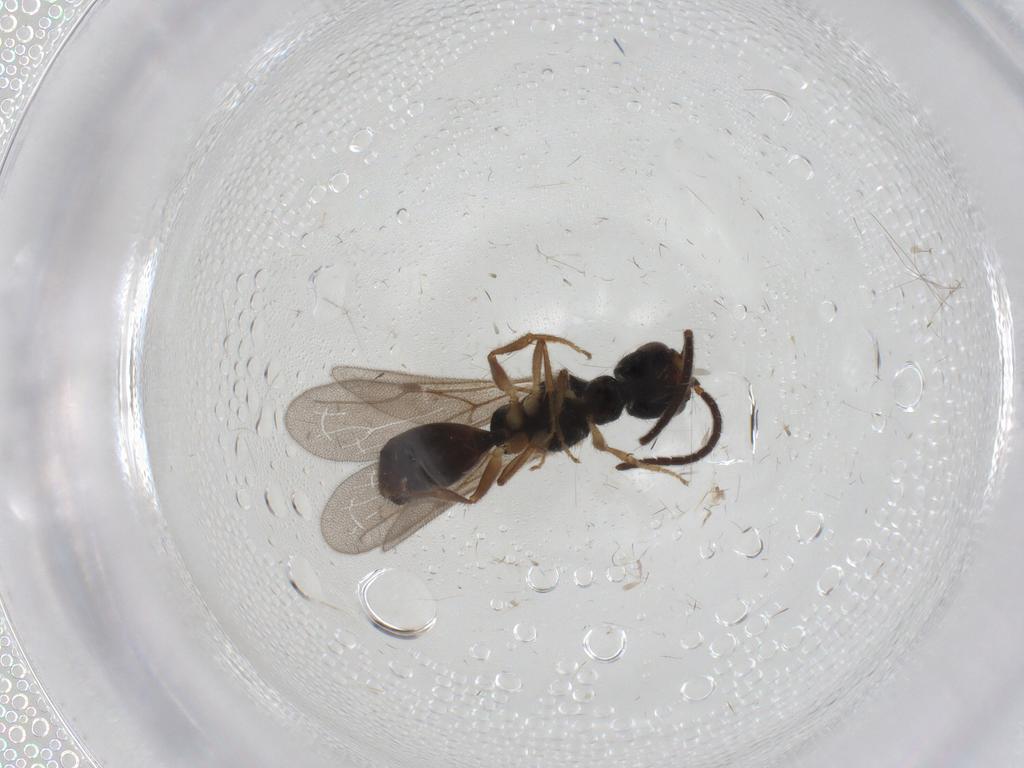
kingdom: Animalia
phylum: Arthropoda
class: Insecta
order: Hymenoptera
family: Bethylidae
